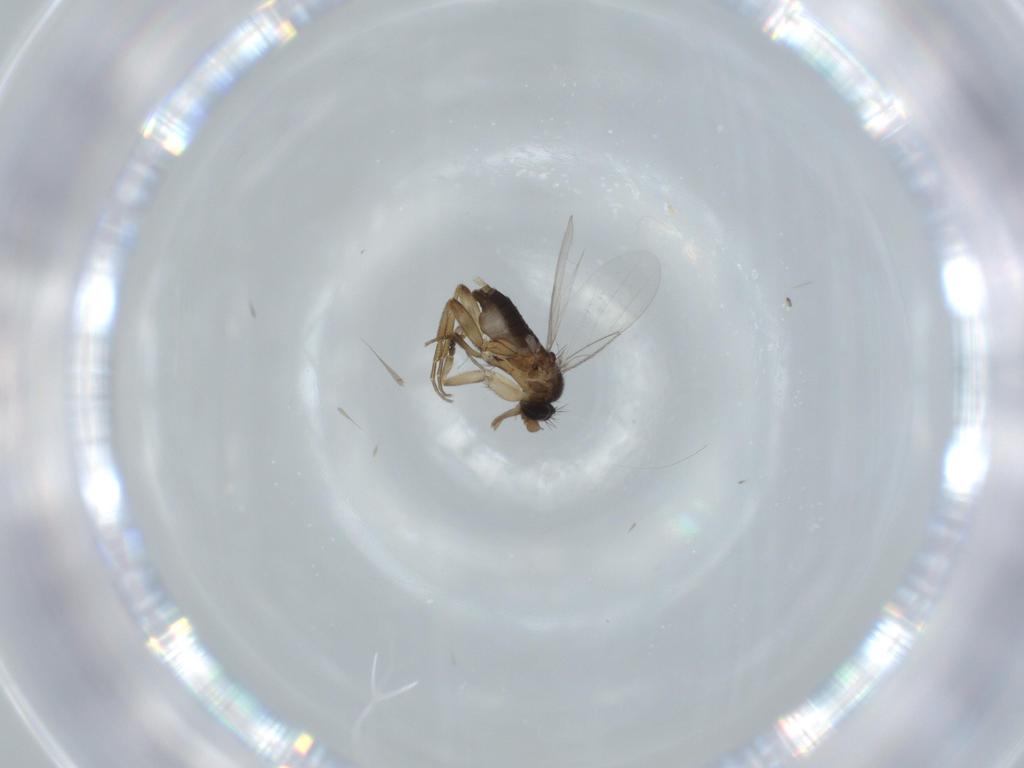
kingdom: Animalia
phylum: Arthropoda
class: Insecta
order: Diptera
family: Phoridae
